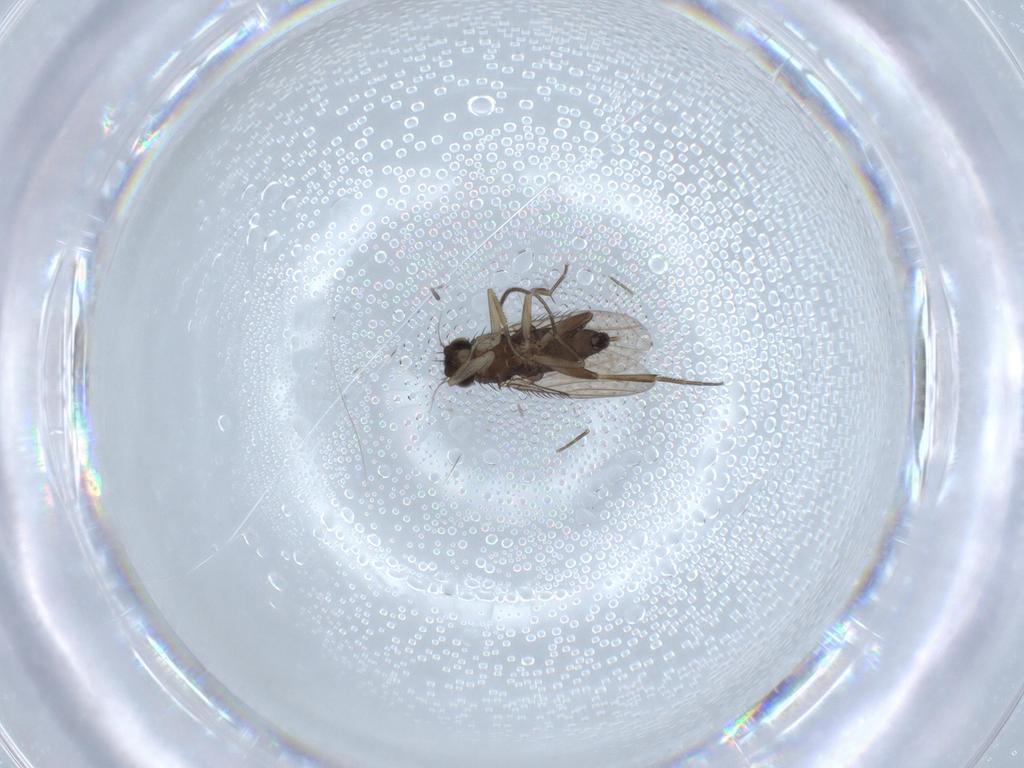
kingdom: Animalia
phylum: Arthropoda
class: Insecta
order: Diptera
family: Phoridae
